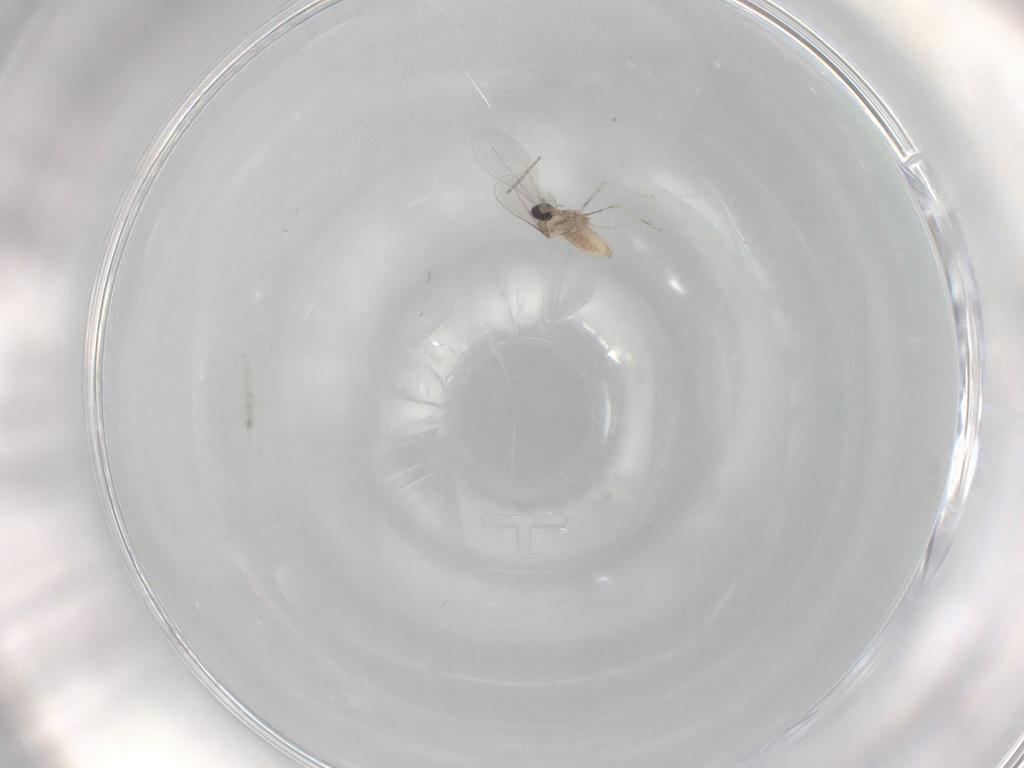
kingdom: Animalia
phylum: Arthropoda
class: Insecta
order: Diptera
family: Cecidomyiidae
